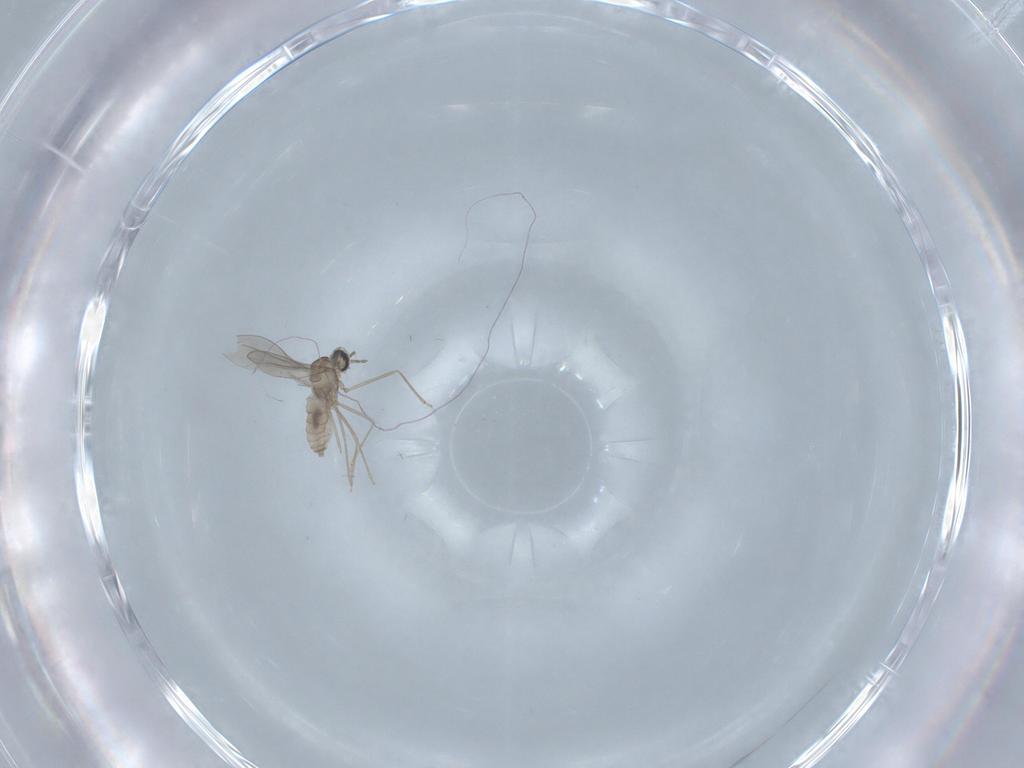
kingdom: Animalia
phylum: Arthropoda
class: Insecta
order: Diptera
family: Cecidomyiidae
